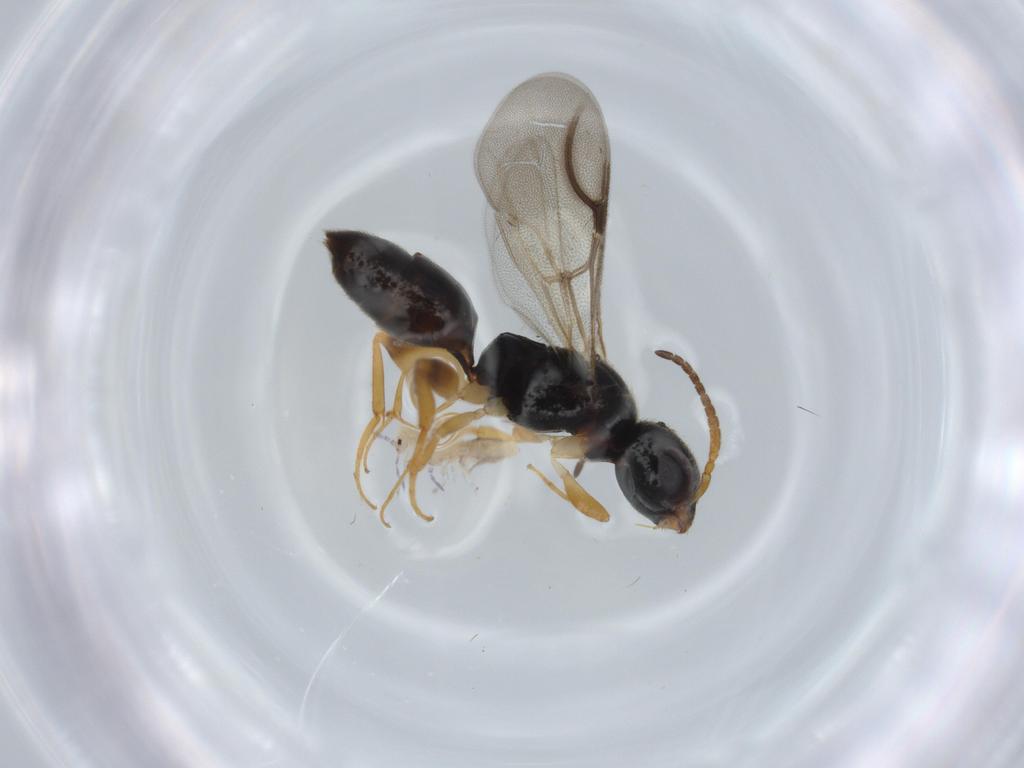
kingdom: Animalia
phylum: Arthropoda
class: Insecta
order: Hymenoptera
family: Bethylidae
